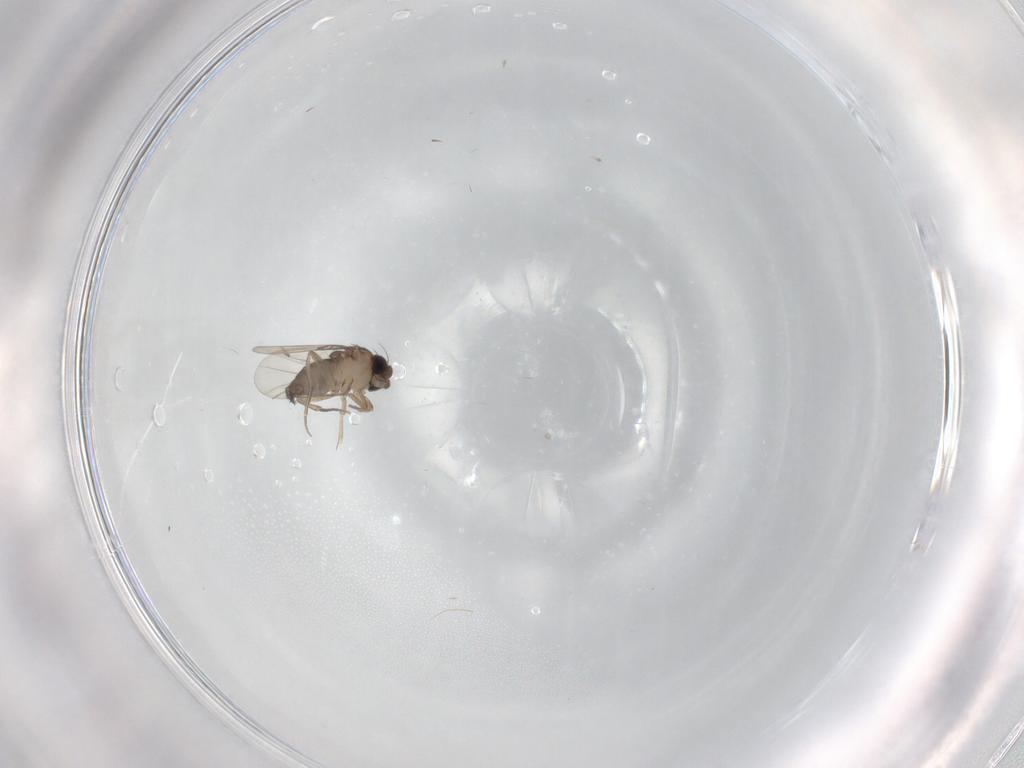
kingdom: Animalia
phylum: Arthropoda
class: Insecta
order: Diptera
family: Phoridae
